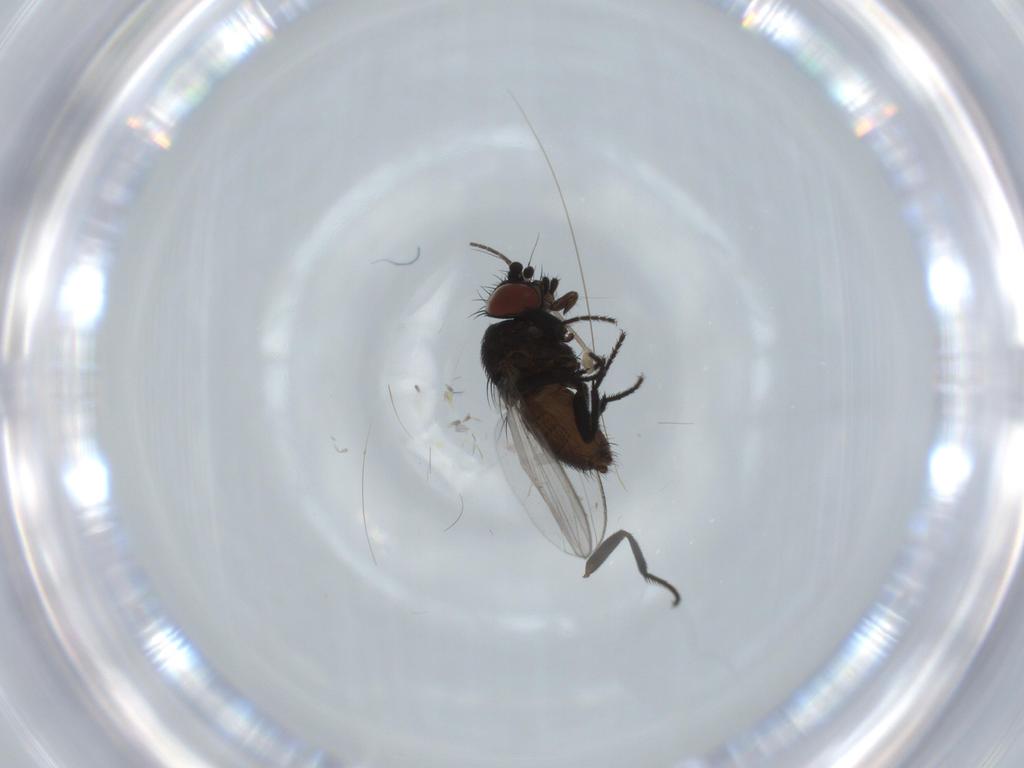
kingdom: Animalia
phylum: Arthropoda
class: Insecta
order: Diptera
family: Milichiidae
